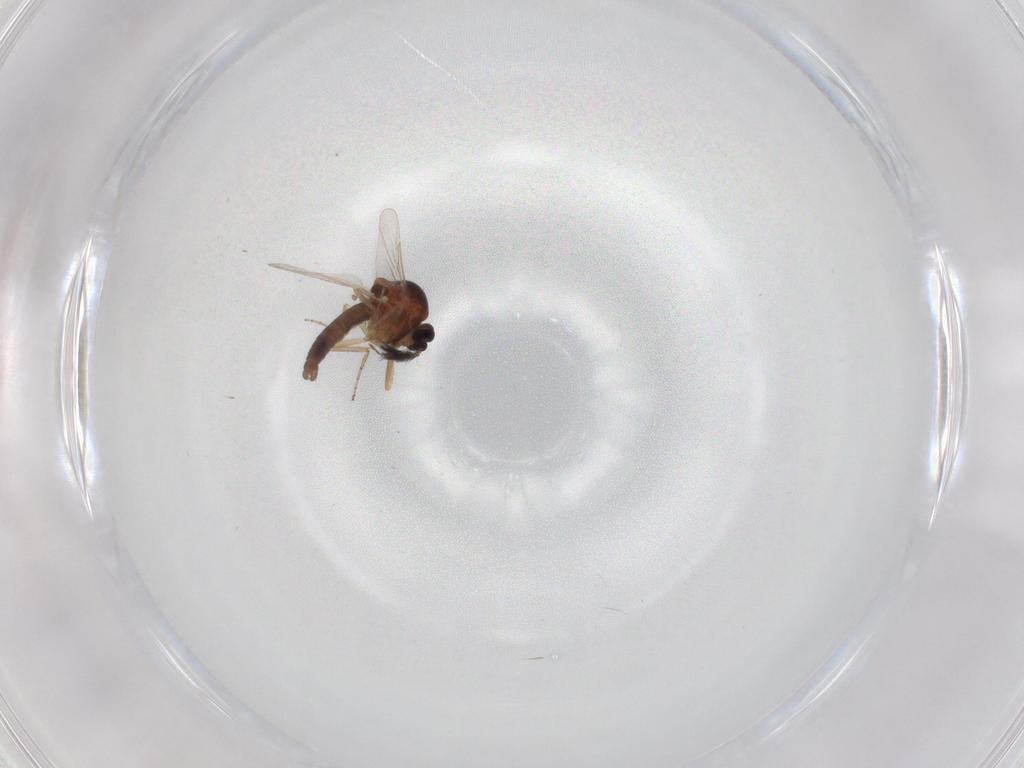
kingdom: Animalia
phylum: Arthropoda
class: Insecta
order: Diptera
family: Ceratopogonidae
